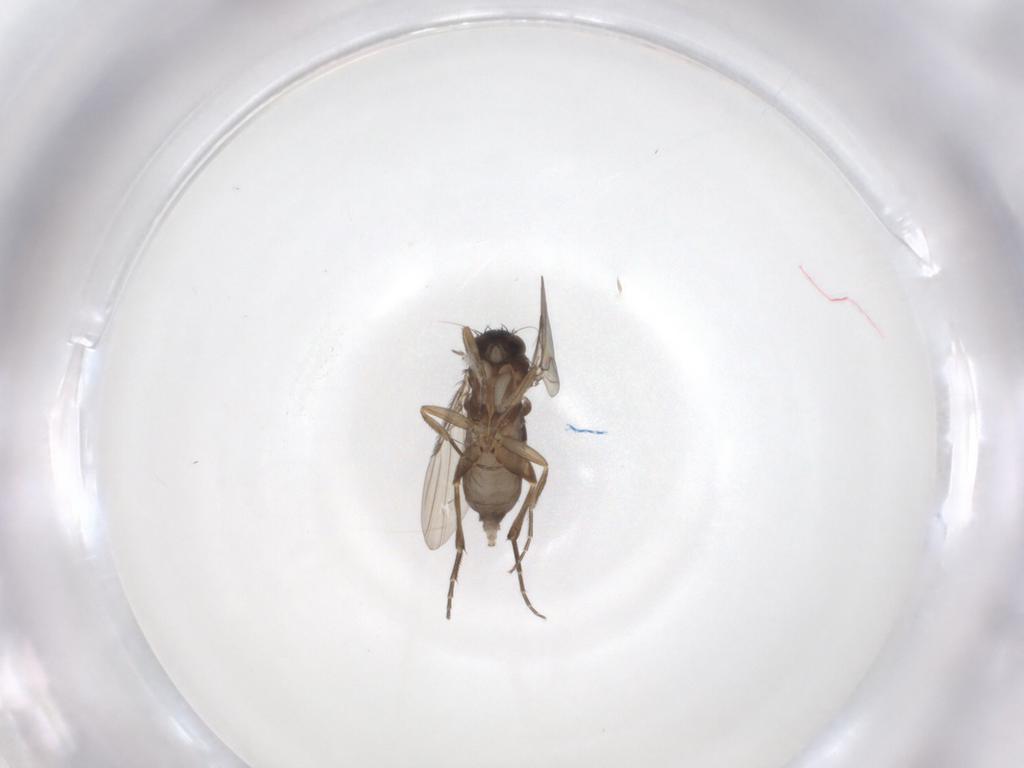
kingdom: Animalia
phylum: Arthropoda
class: Insecta
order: Diptera
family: Phoridae
